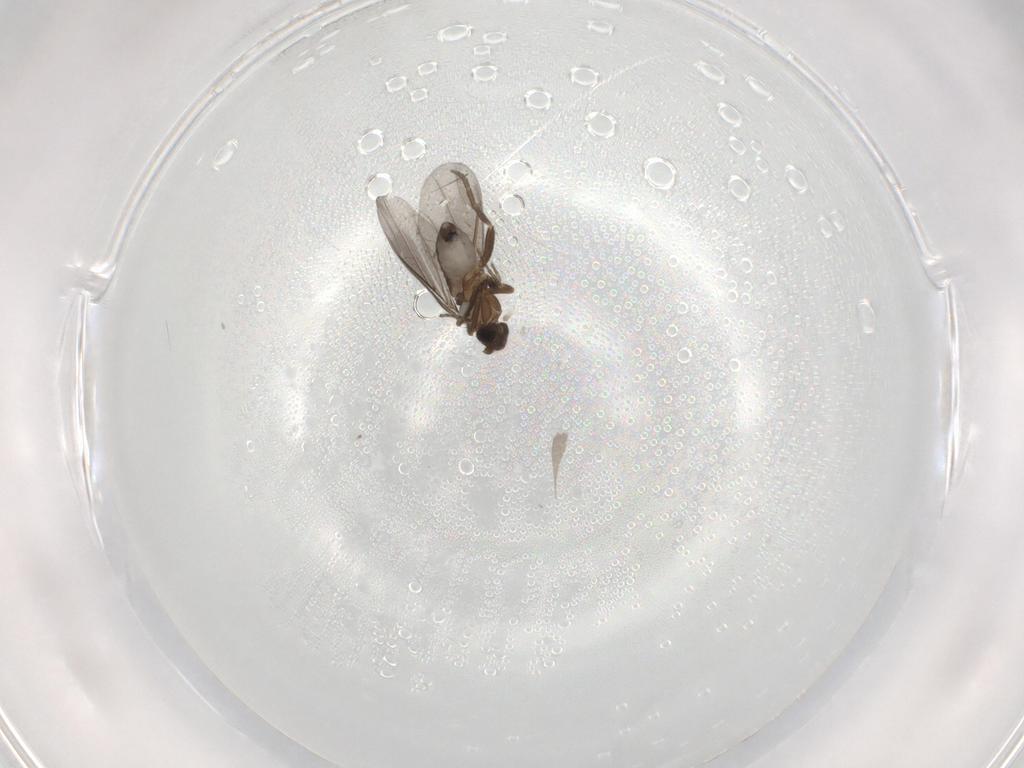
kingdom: Animalia
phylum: Arthropoda
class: Insecta
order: Diptera
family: Phoridae
